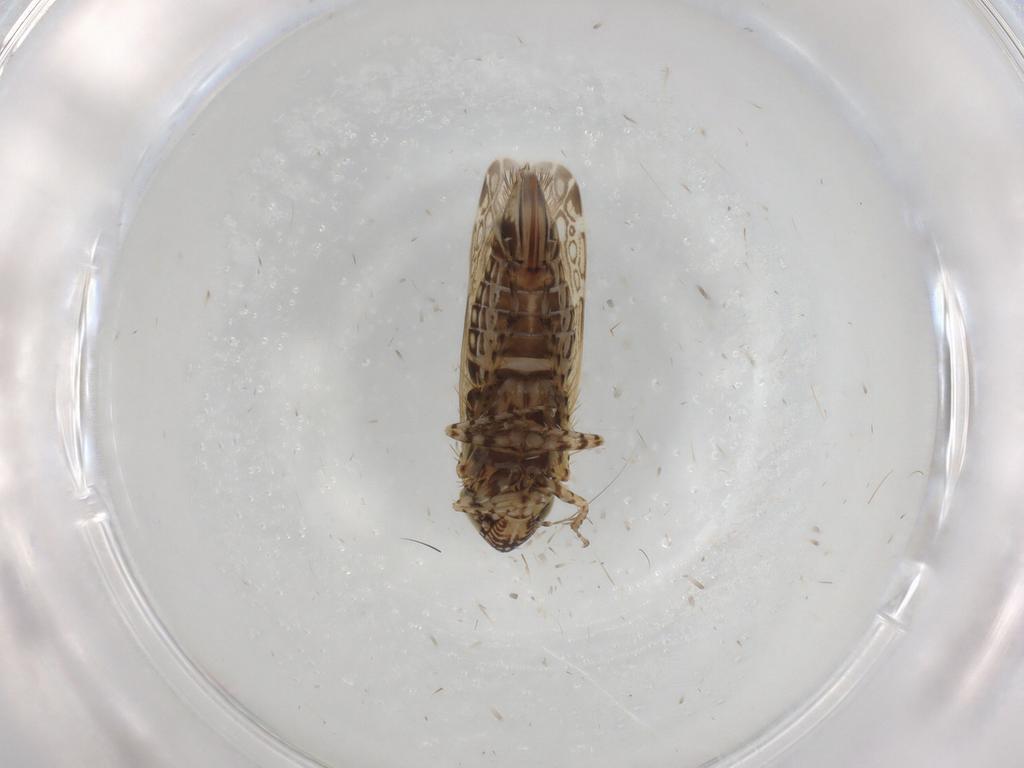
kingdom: Animalia
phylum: Arthropoda
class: Insecta
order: Hemiptera
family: Cicadellidae
